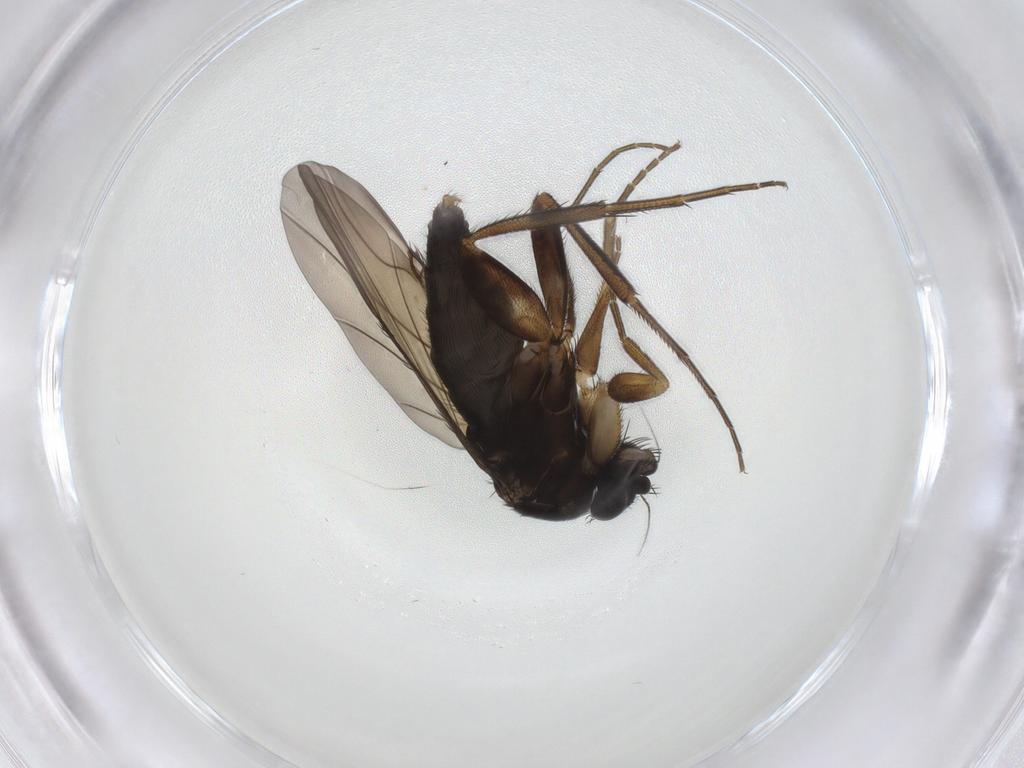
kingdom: Animalia
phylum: Arthropoda
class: Insecta
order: Diptera
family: Phoridae
